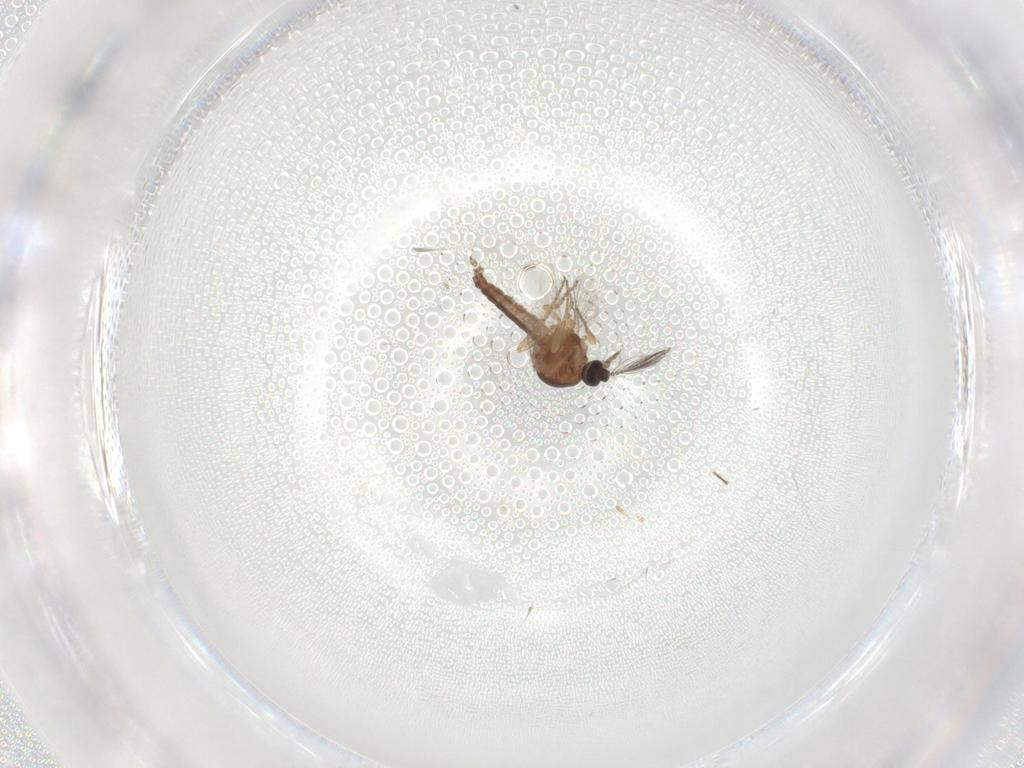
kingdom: Animalia
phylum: Arthropoda
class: Insecta
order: Diptera
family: Ceratopogonidae
